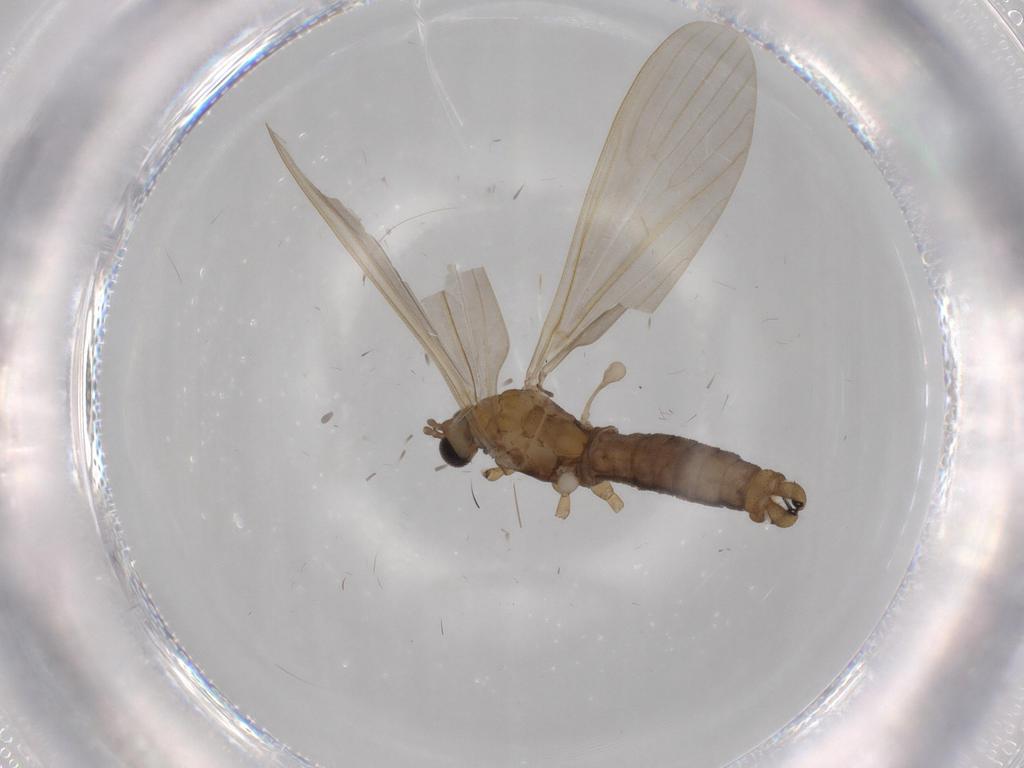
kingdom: Animalia
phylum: Arthropoda
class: Insecta
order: Diptera
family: Limoniidae
